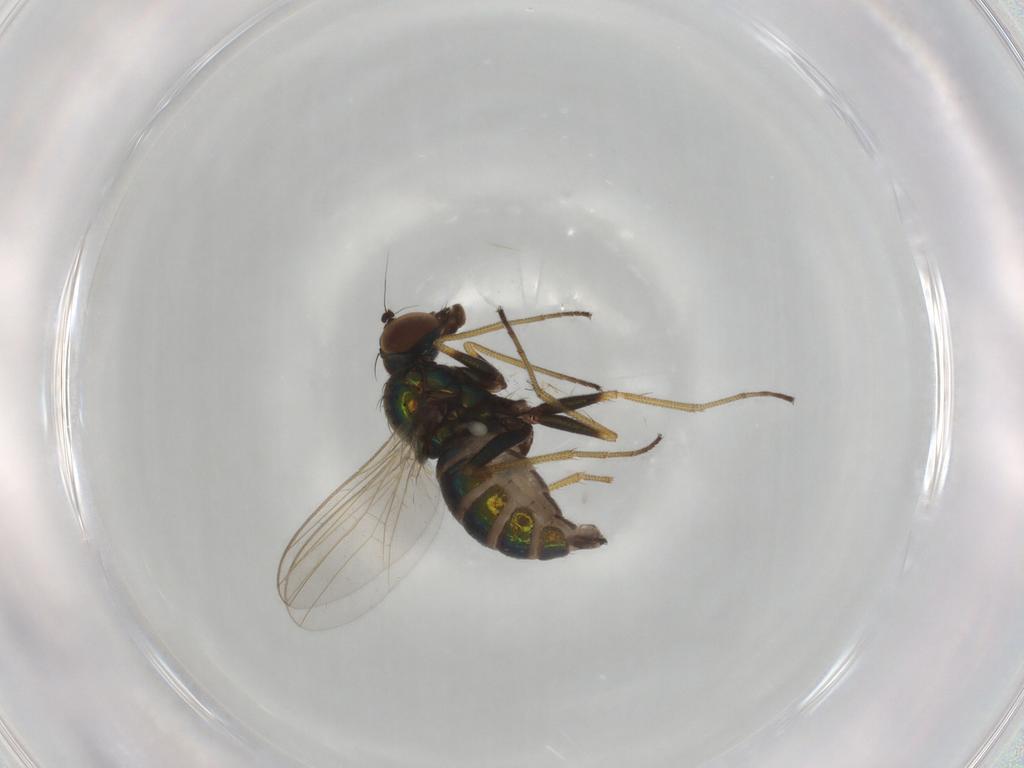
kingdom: Animalia
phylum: Arthropoda
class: Insecta
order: Diptera
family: Dolichopodidae
